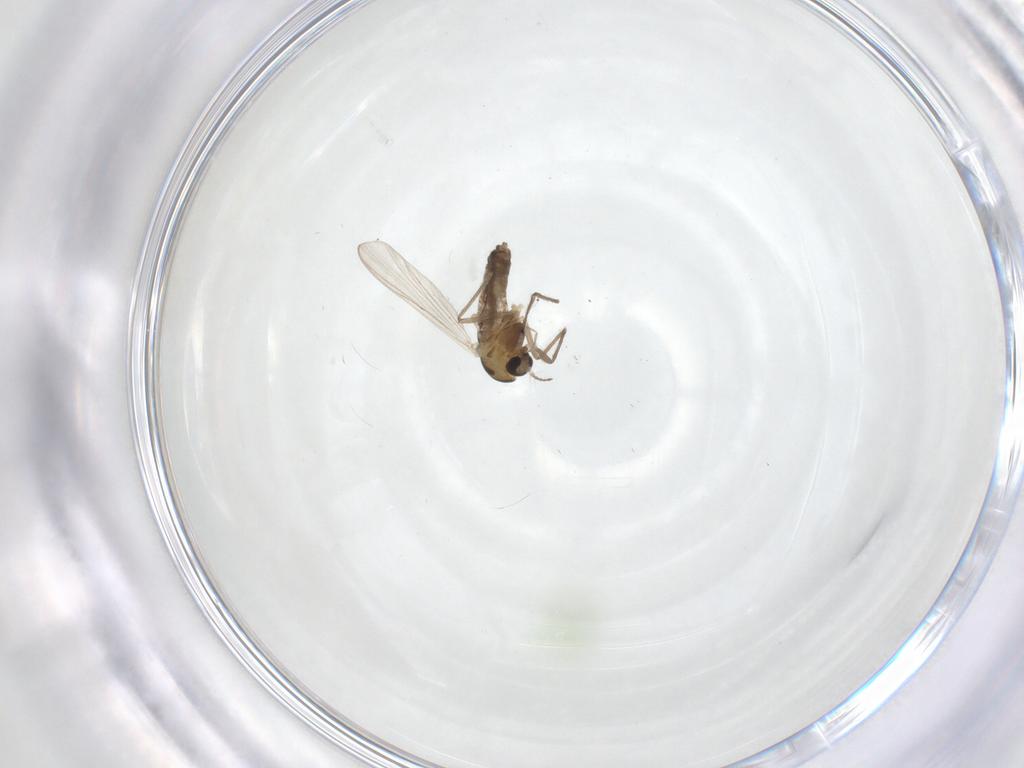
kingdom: Animalia
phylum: Arthropoda
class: Insecta
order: Diptera
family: Chironomidae
